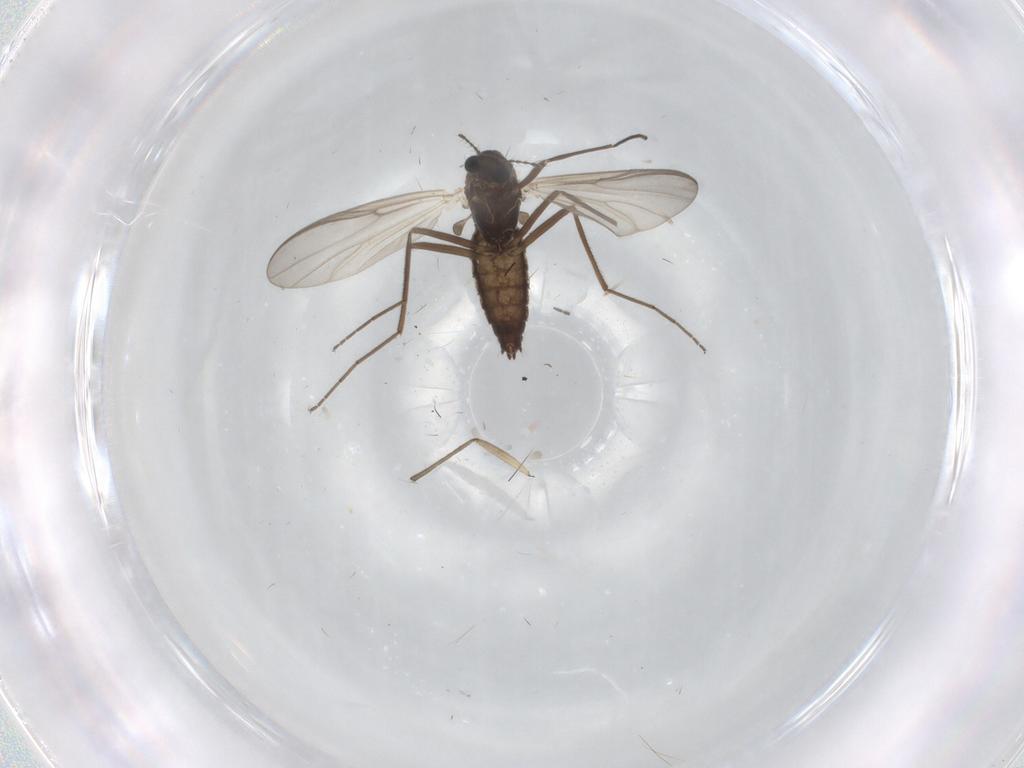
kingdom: Animalia
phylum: Arthropoda
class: Insecta
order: Diptera
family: Chironomidae
